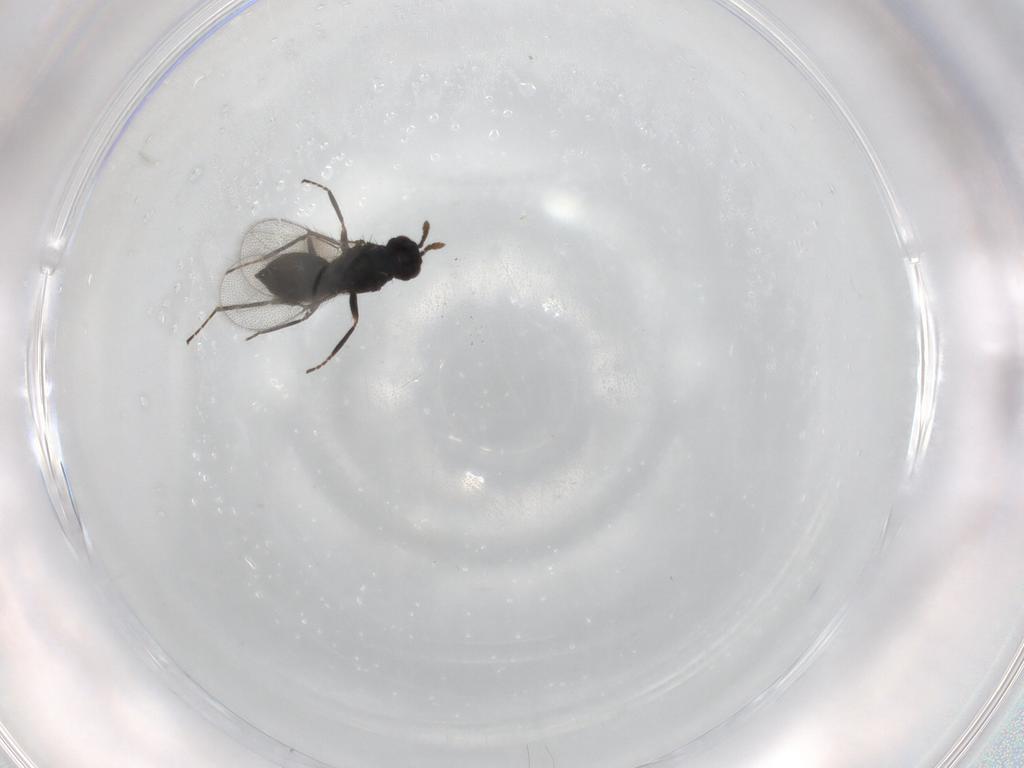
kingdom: Animalia
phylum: Arthropoda
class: Insecta
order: Hymenoptera
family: Eulophidae
